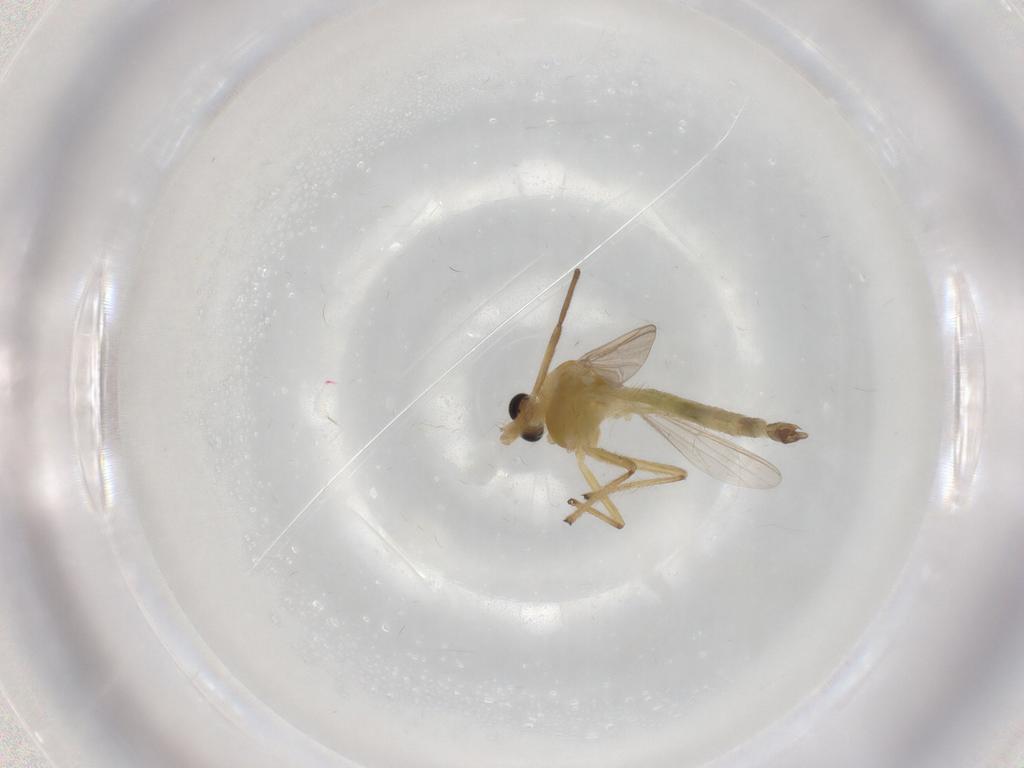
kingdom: Animalia
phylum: Arthropoda
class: Insecta
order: Diptera
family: Chironomidae
